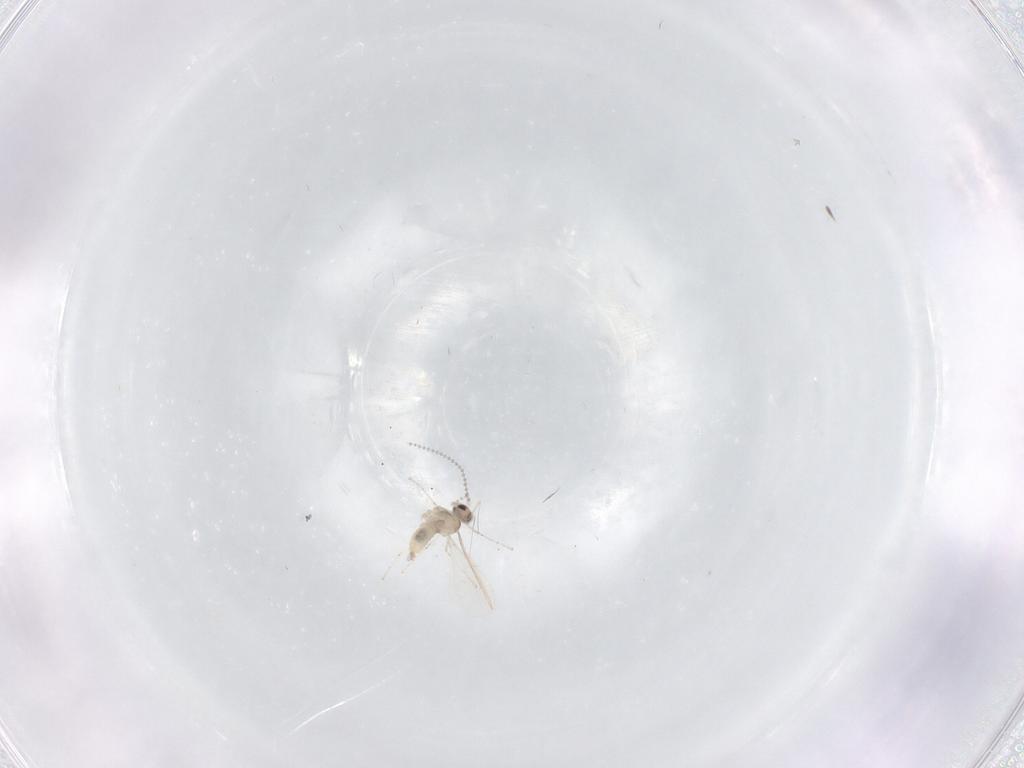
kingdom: Animalia
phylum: Arthropoda
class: Insecta
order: Diptera
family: Cecidomyiidae
